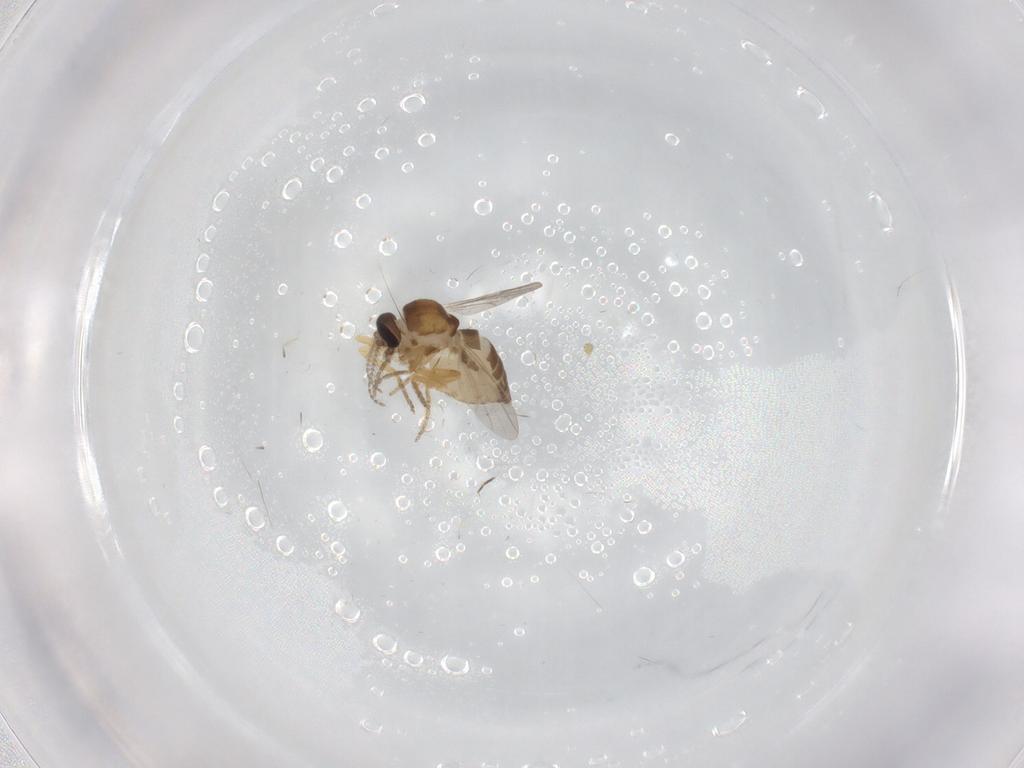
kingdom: Animalia
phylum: Arthropoda
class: Insecta
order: Diptera
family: Ceratopogonidae
